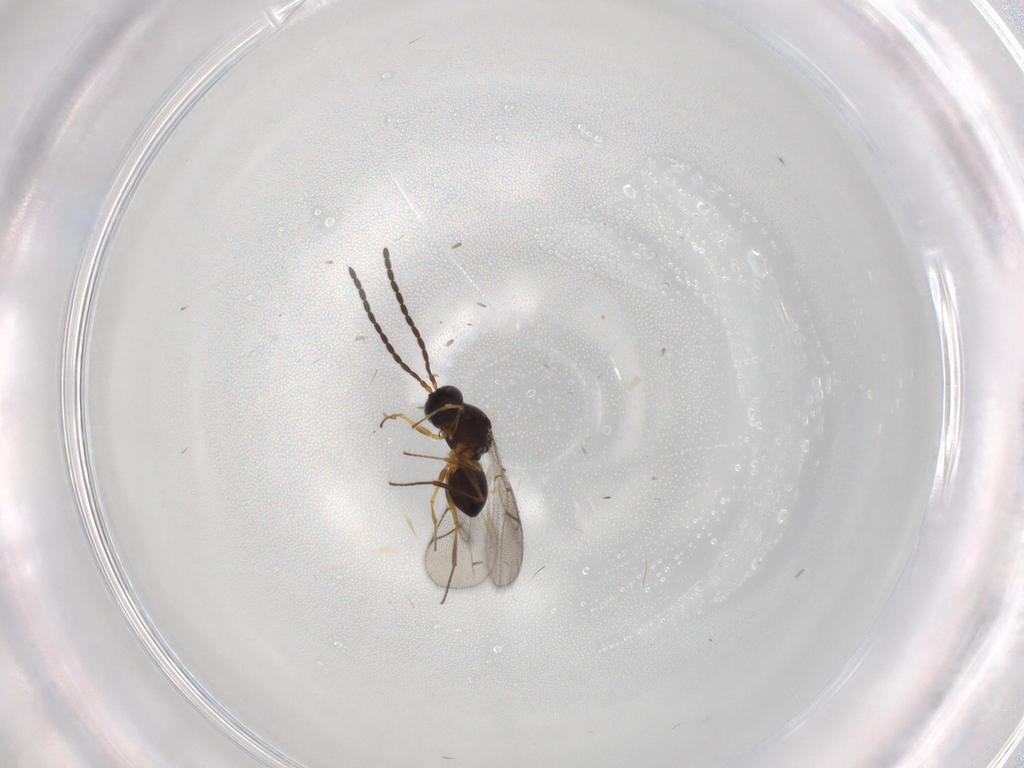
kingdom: Animalia
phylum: Arthropoda
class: Insecta
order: Hymenoptera
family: Figitidae
